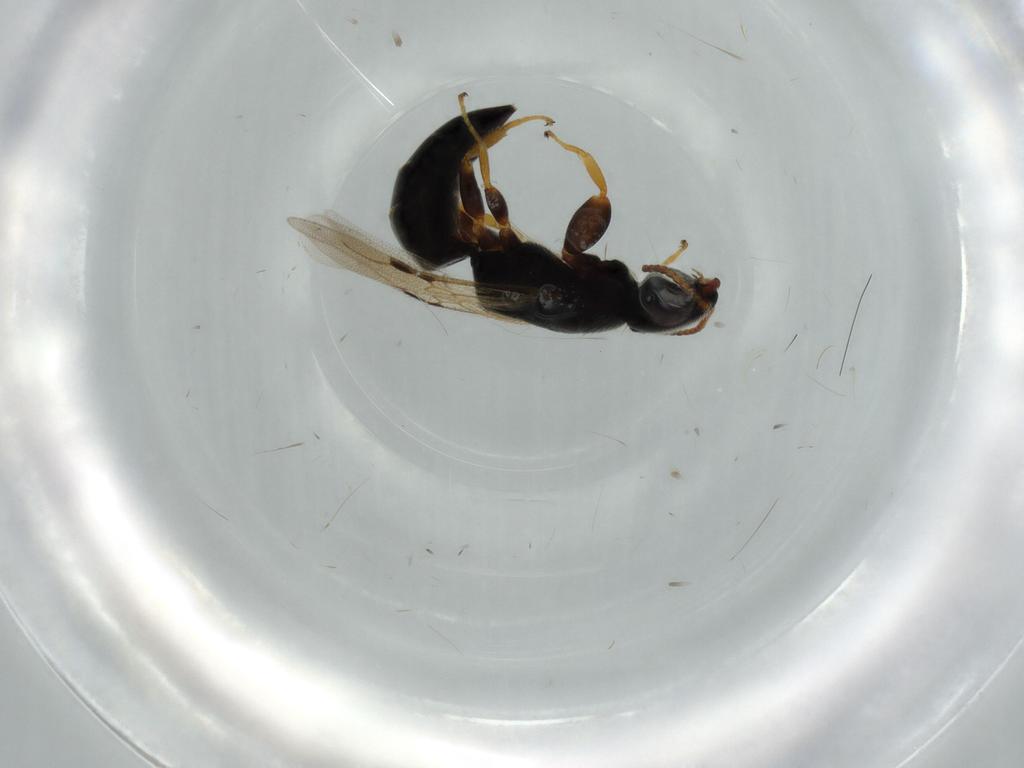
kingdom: Animalia
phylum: Arthropoda
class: Insecta
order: Hymenoptera
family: Bethylidae
